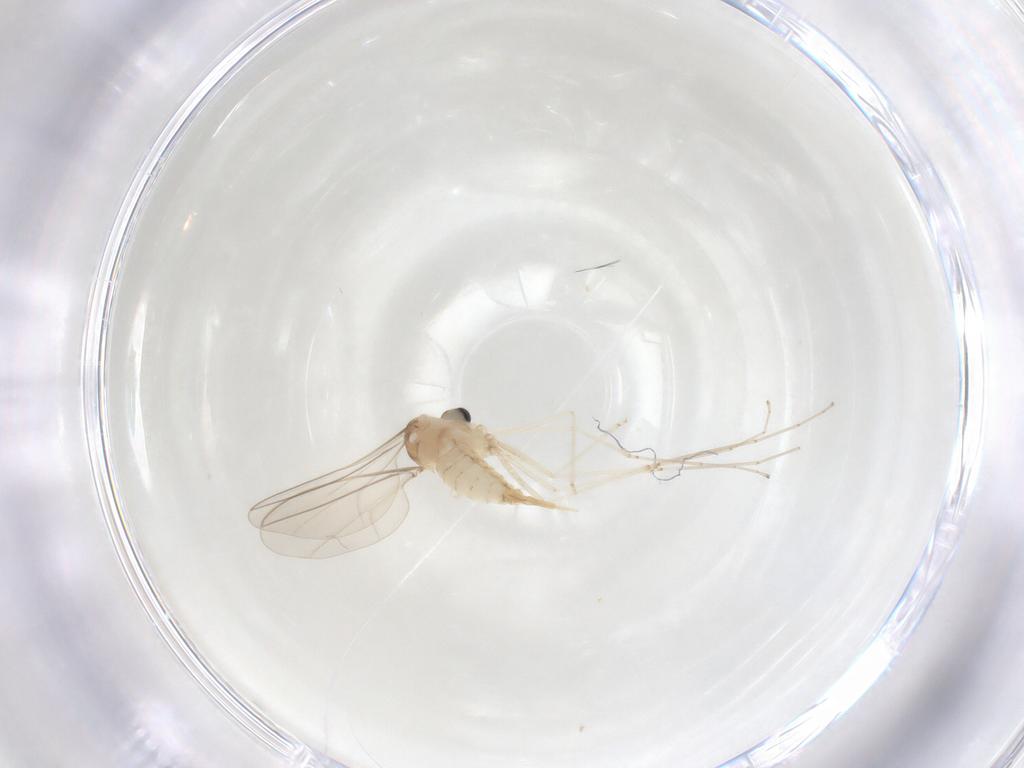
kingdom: Animalia
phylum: Arthropoda
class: Insecta
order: Diptera
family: Cecidomyiidae
